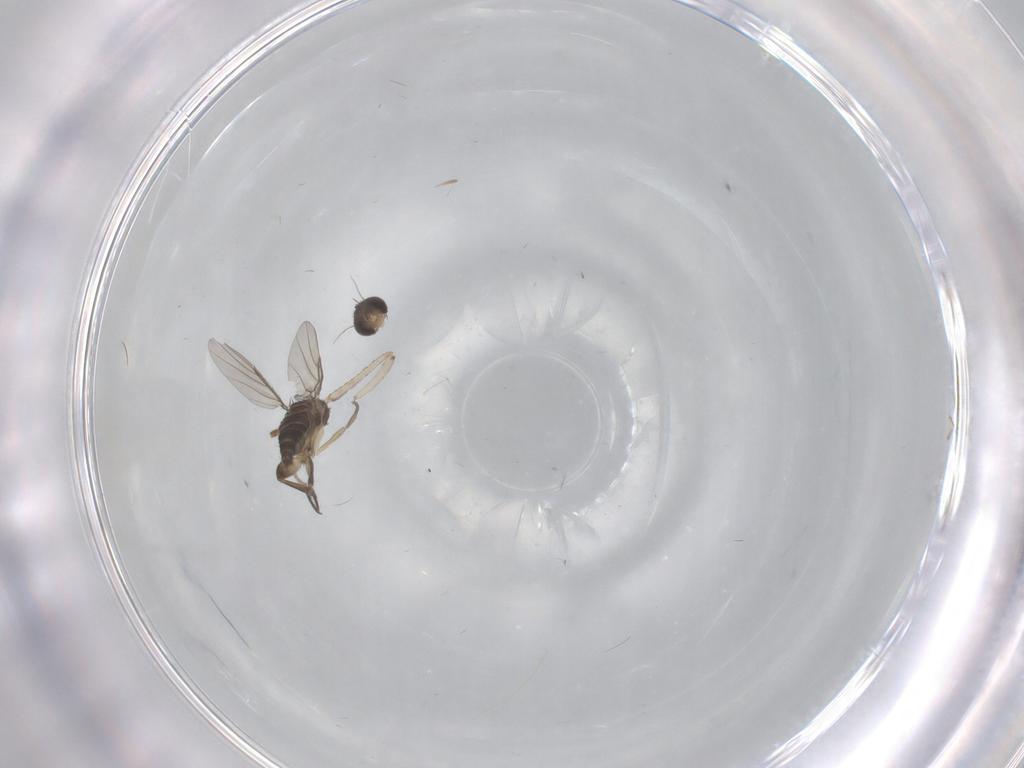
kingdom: Animalia
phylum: Arthropoda
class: Insecta
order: Diptera
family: Psychodidae
